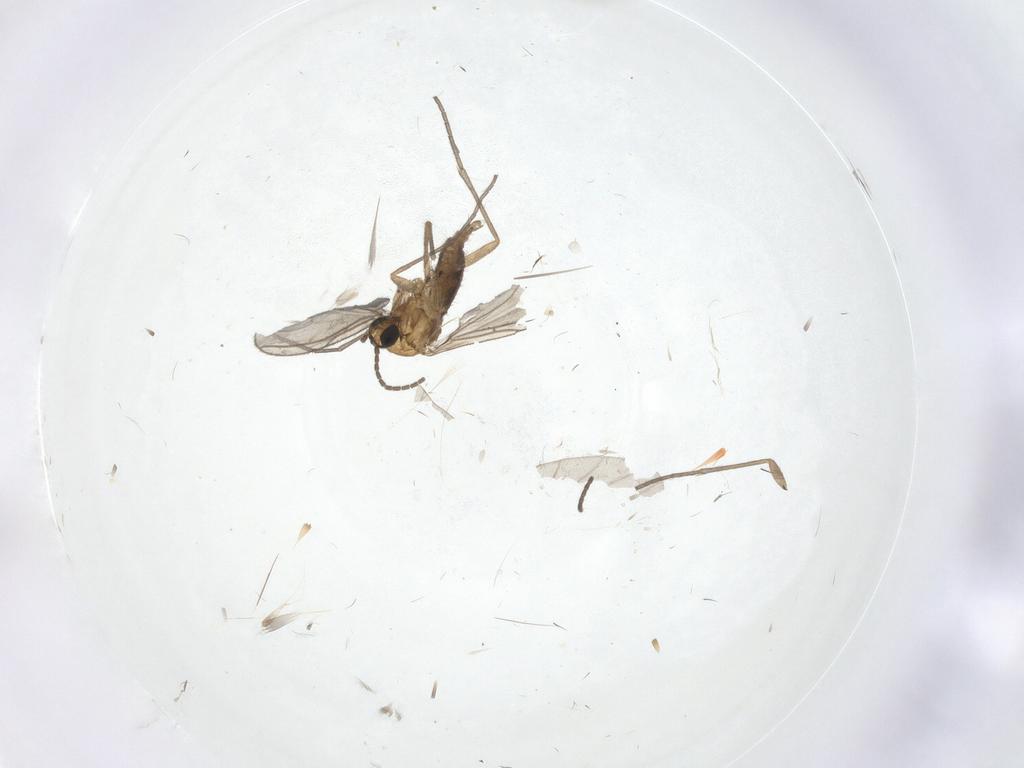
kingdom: Animalia
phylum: Arthropoda
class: Insecta
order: Diptera
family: Sciaridae
